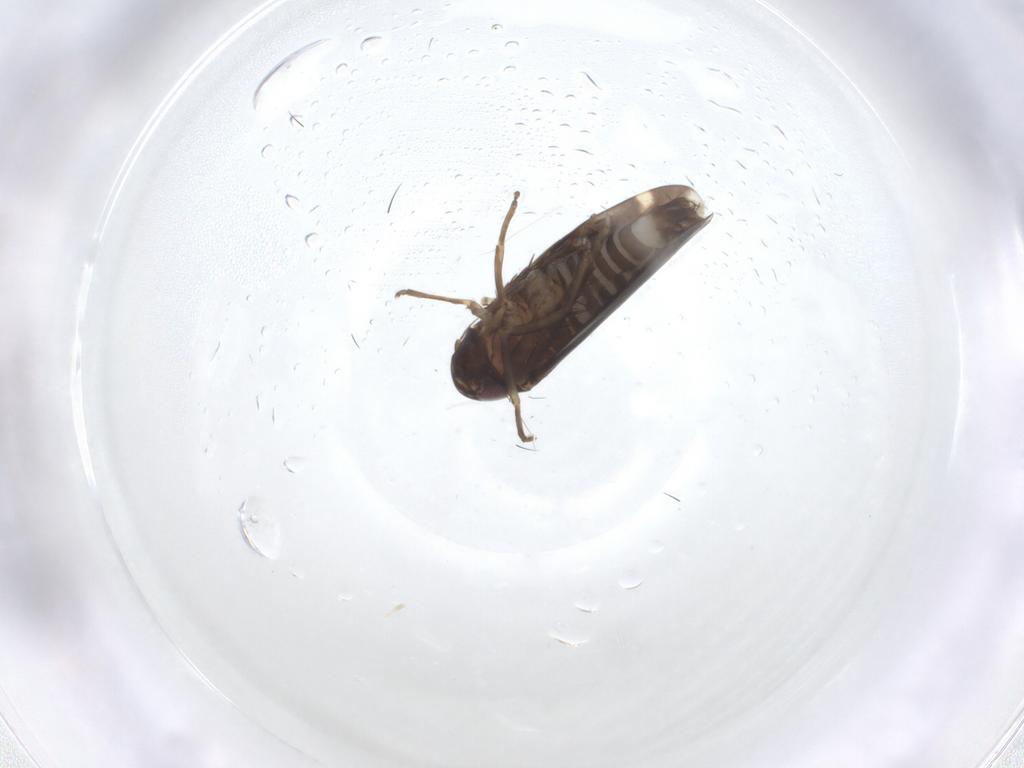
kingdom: Animalia
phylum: Arthropoda
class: Insecta
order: Hemiptera
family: Cicadellidae
